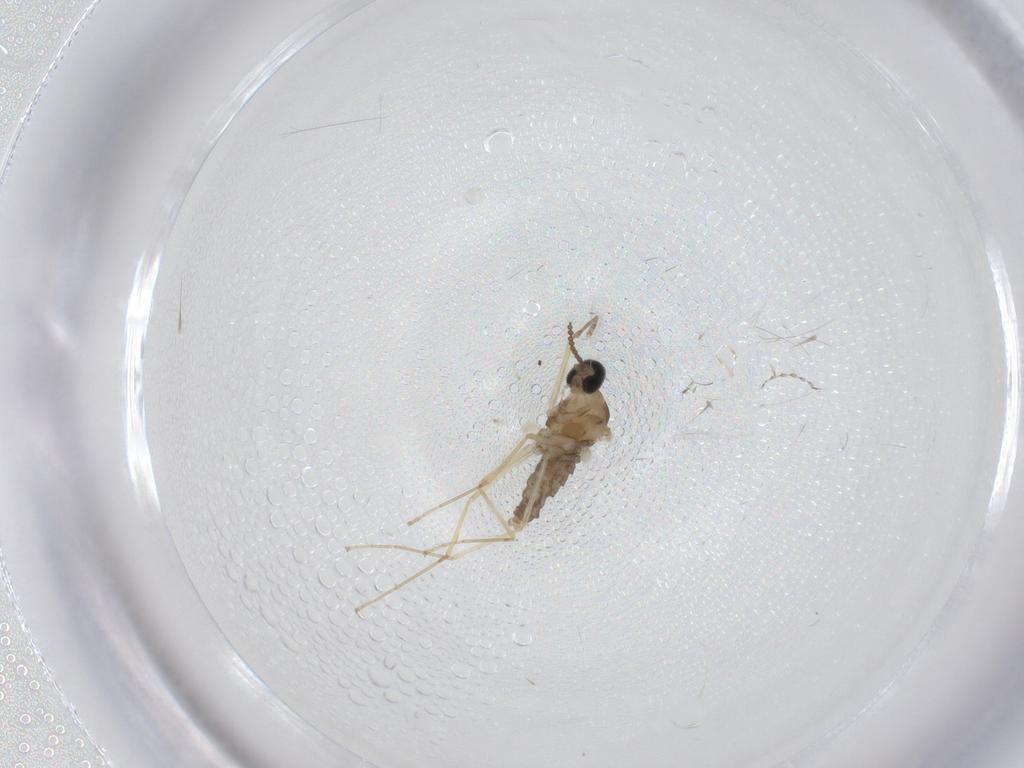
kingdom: Animalia
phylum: Arthropoda
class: Insecta
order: Diptera
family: Cecidomyiidae
